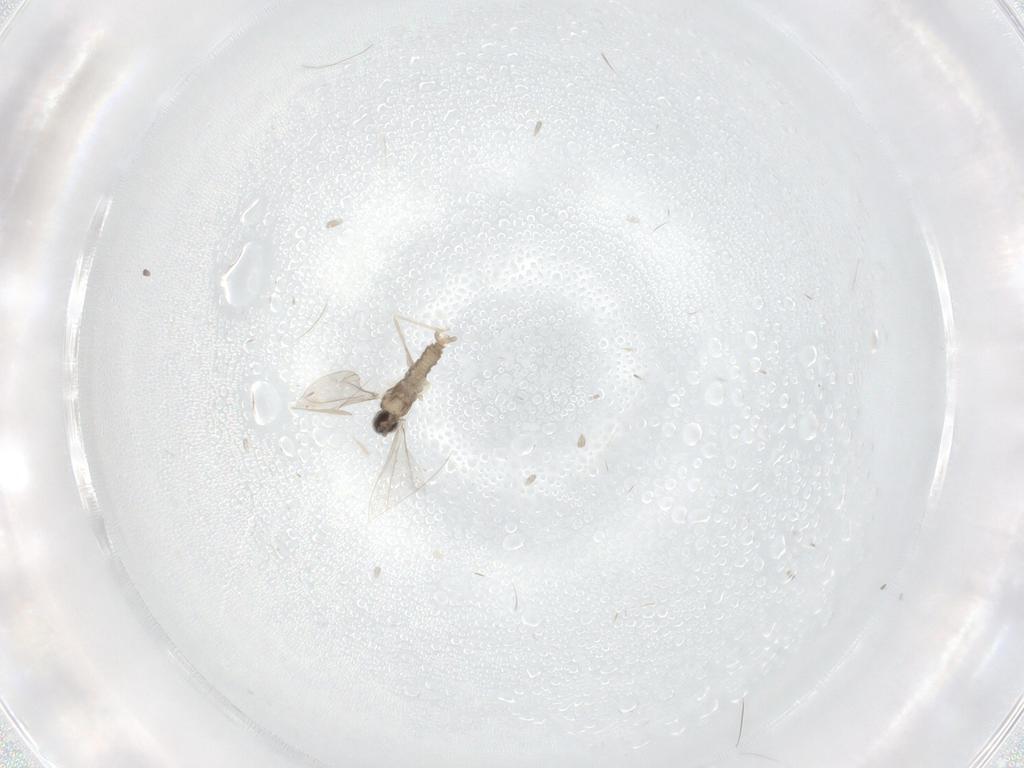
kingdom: Animalia
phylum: Arthropoda
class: Insecta
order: Diptera
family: Cecidomyiidae
